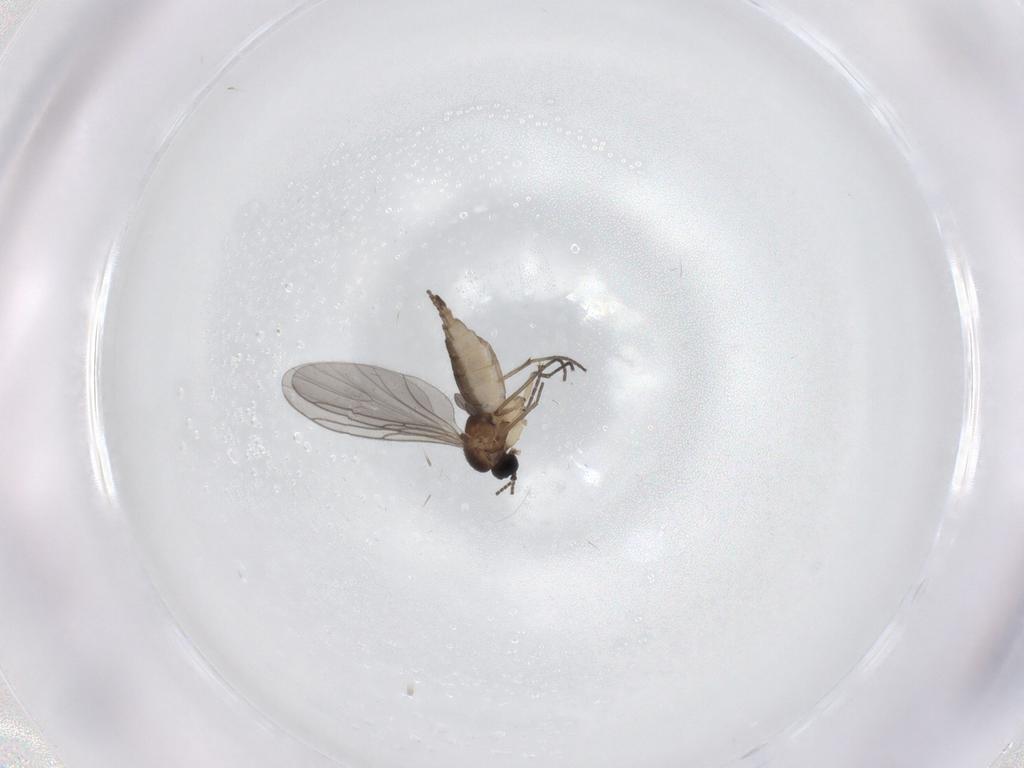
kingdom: Animalia
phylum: Arthropoda
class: Insecta
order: Diptera
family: Sciaridae
